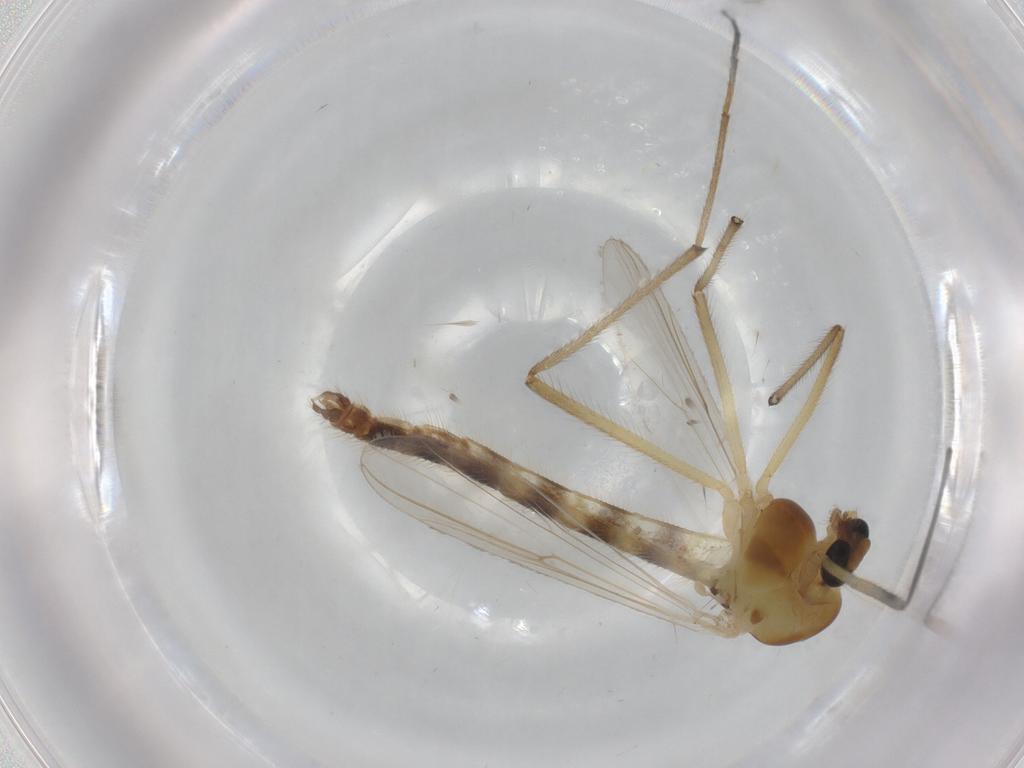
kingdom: Animalia
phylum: Arthropoda
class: Insecta
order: Diptera
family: Chironomidae
